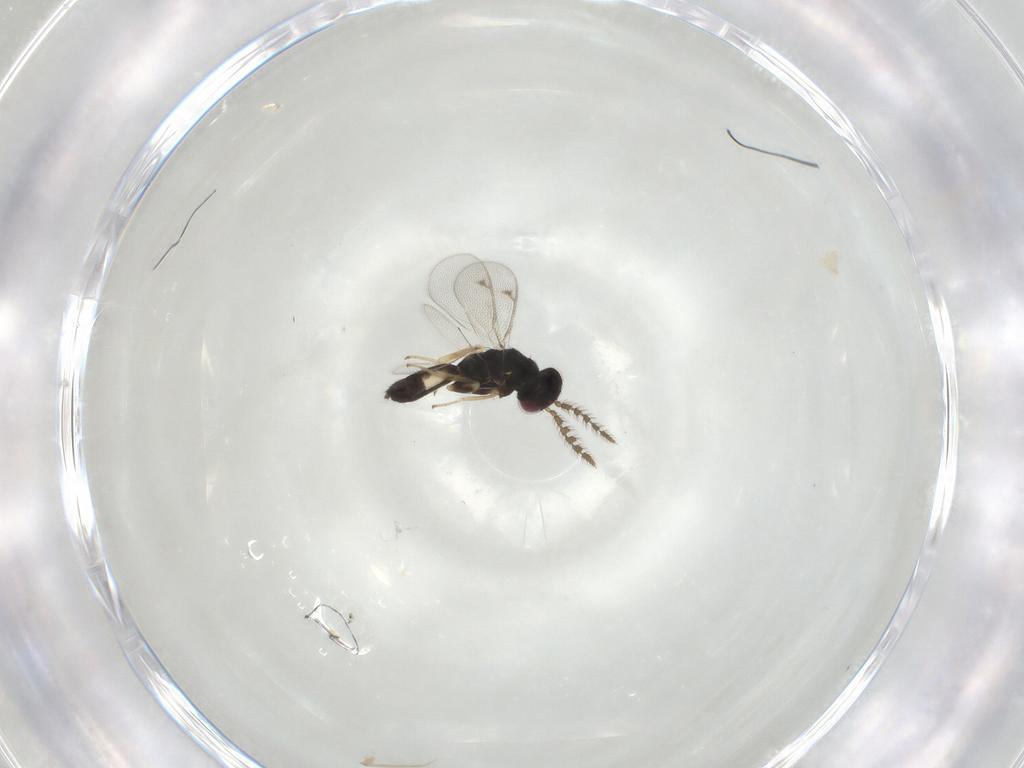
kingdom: Animalia
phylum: Arthropoda
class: Insecta
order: Hymenoptera
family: Eulophidae
